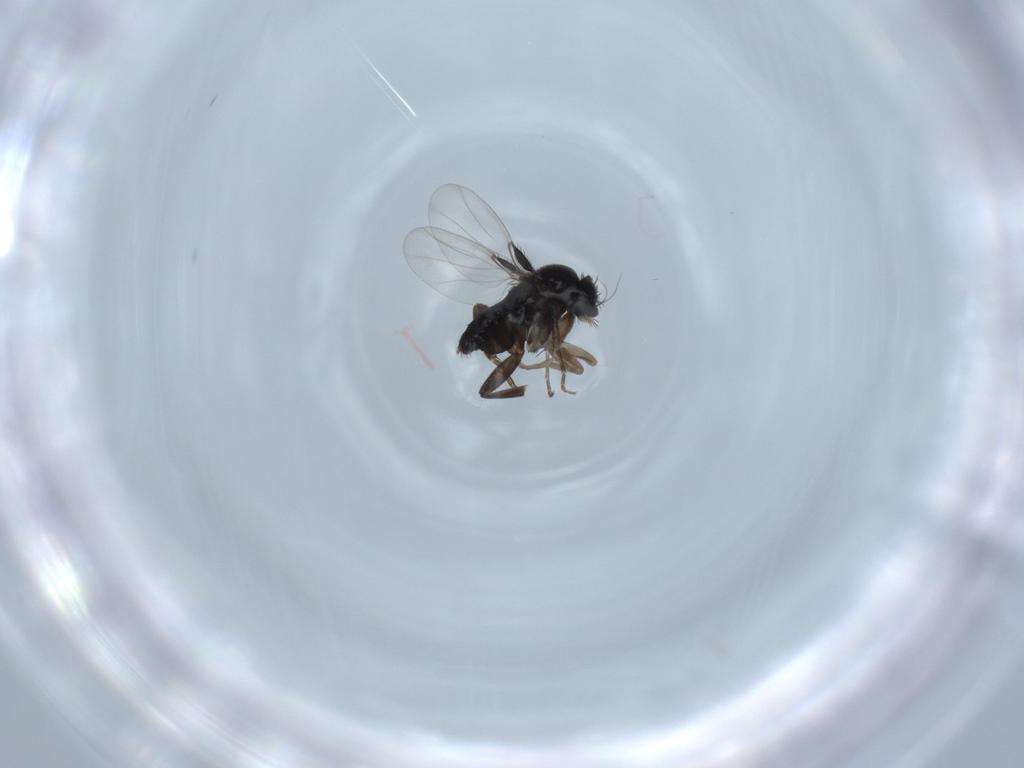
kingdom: Animalia
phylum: Arthropoda
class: Insecta
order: Diptera
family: Phoridae
